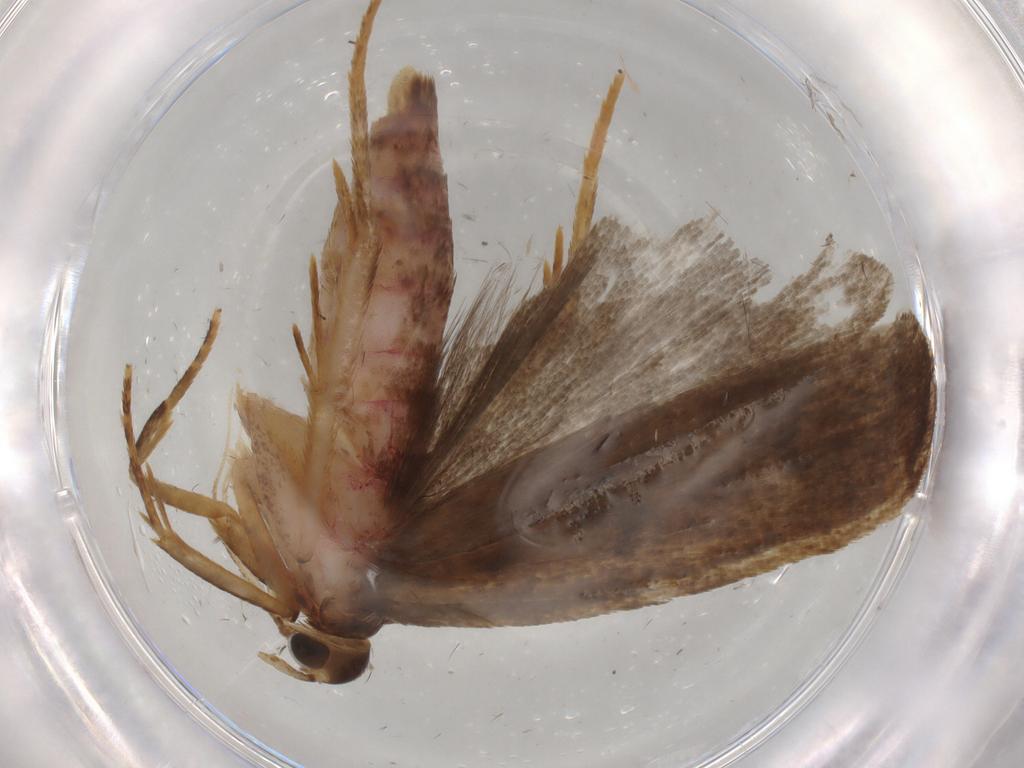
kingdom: Animalia
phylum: Arthropoda
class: Insecta
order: Lepidoptera
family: Autostichidae
